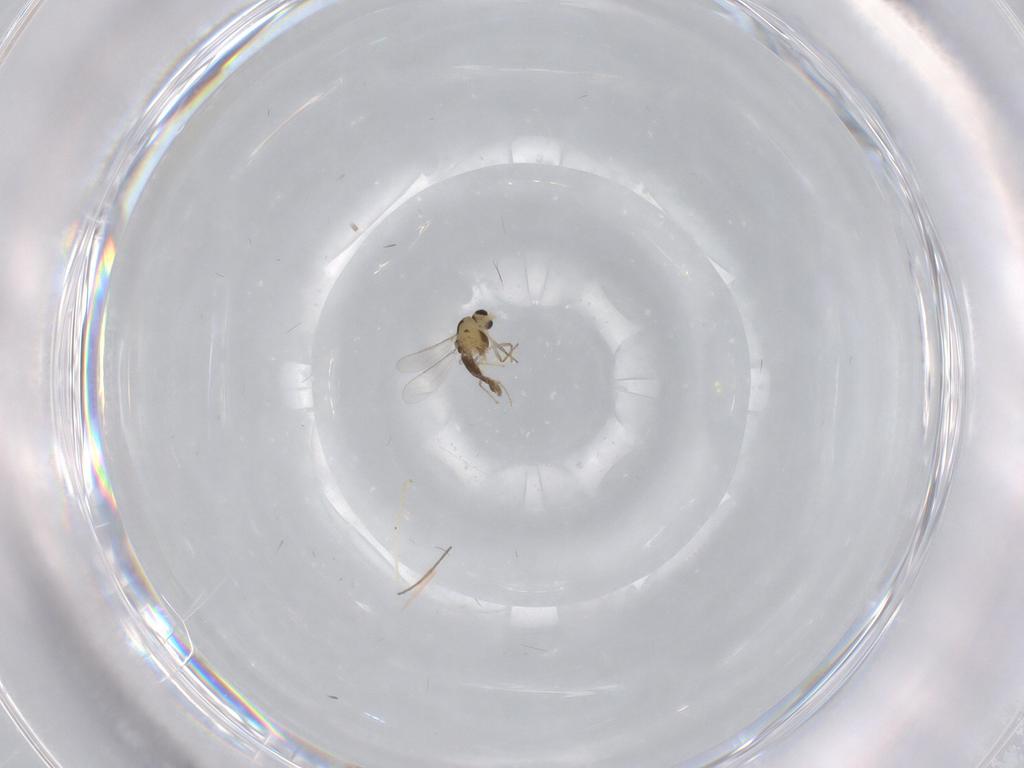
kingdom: Animalia
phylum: Arthropoda
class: Insecta
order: Diptera
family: Chironomidae
